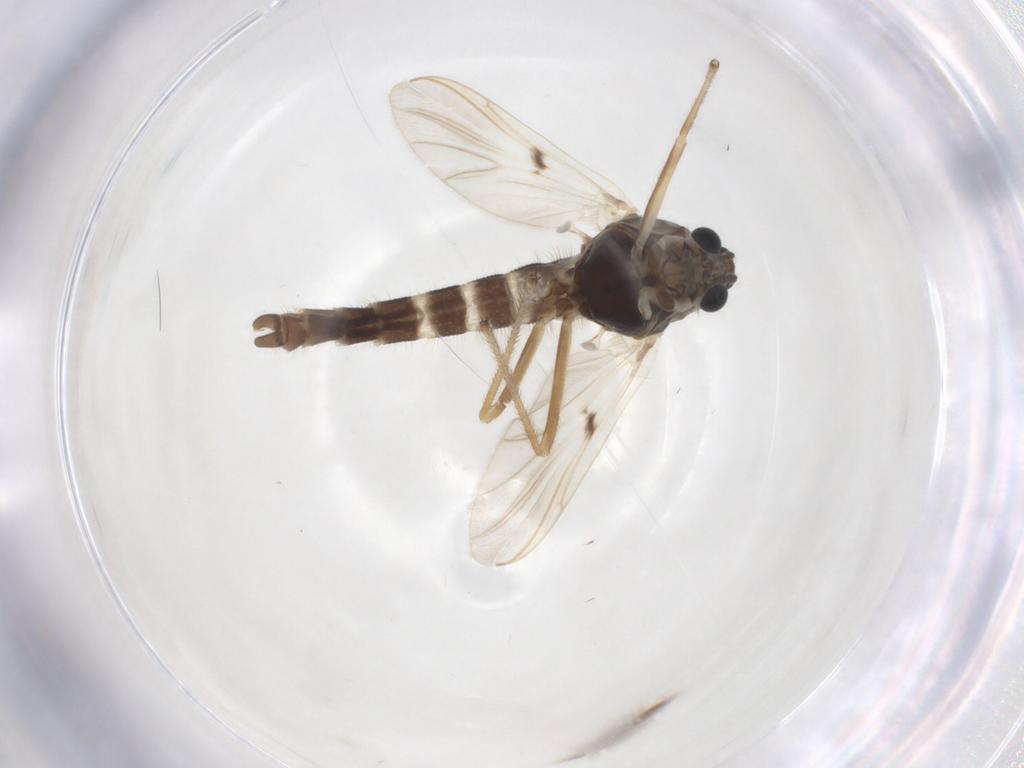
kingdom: Animalia
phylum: Arthropoda
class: Insecta
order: Diptera
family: Chironomidae
